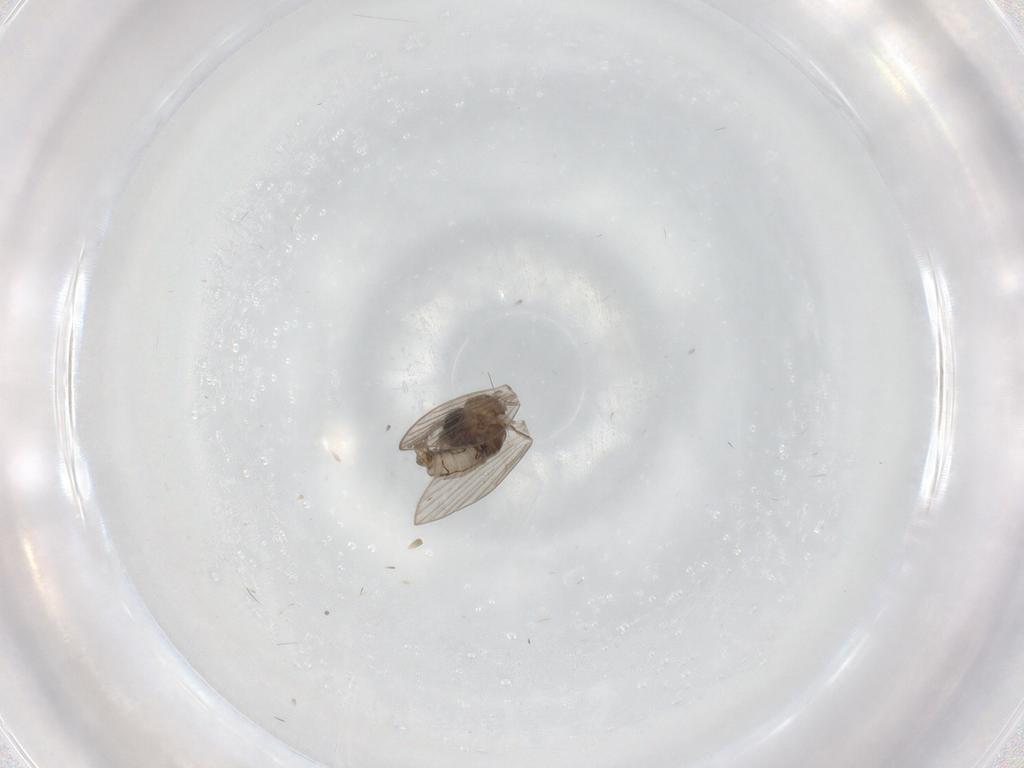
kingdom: Animalia
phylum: Arthropoda
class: Insecta
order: Diptera
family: Psychodidae
